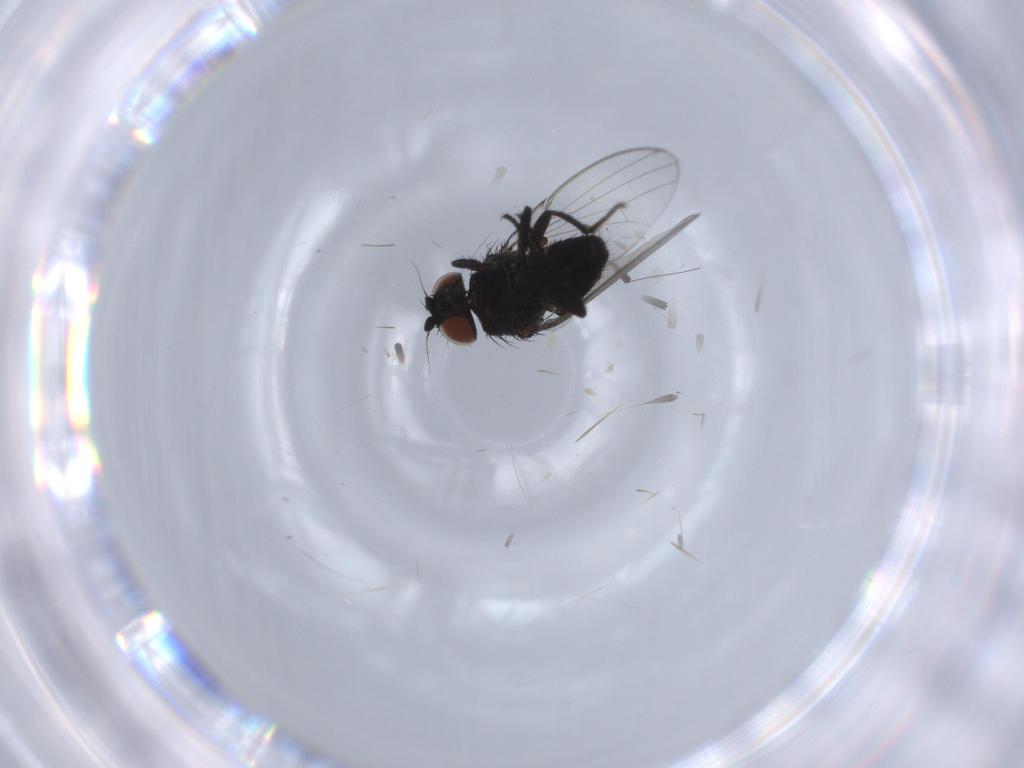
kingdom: Animalia
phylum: Arthropoda
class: Insecta
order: Diptera
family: Milichiidae
